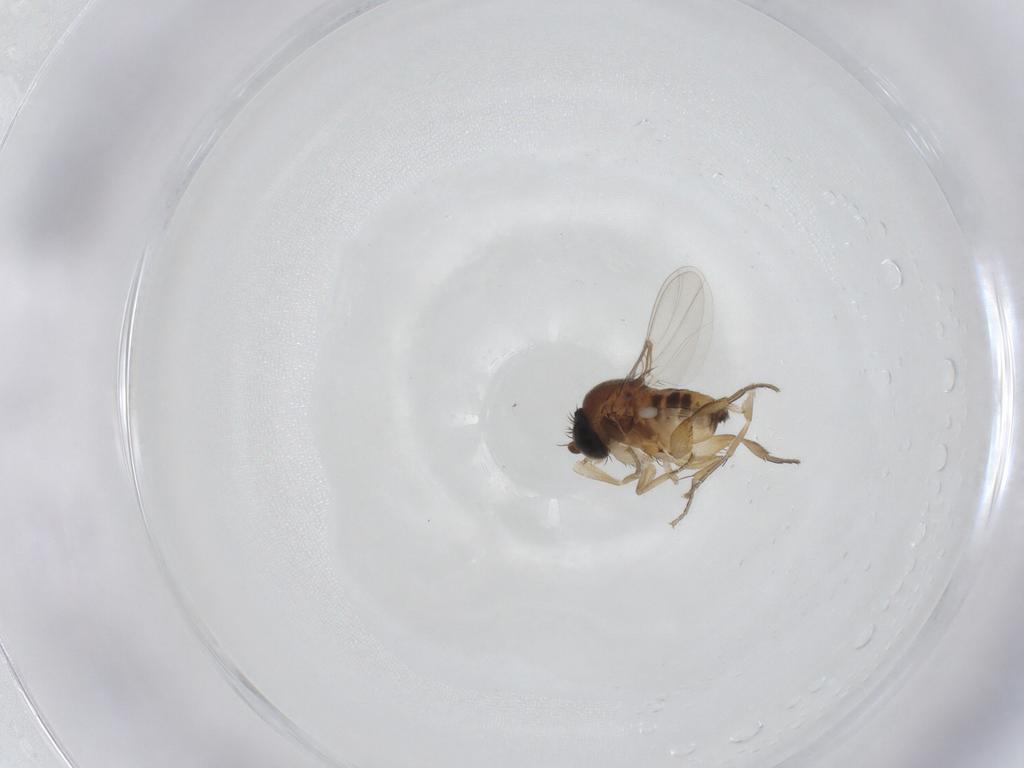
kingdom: Animalia
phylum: Arthropoda
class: Insecta
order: Diptera
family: Phoridae
